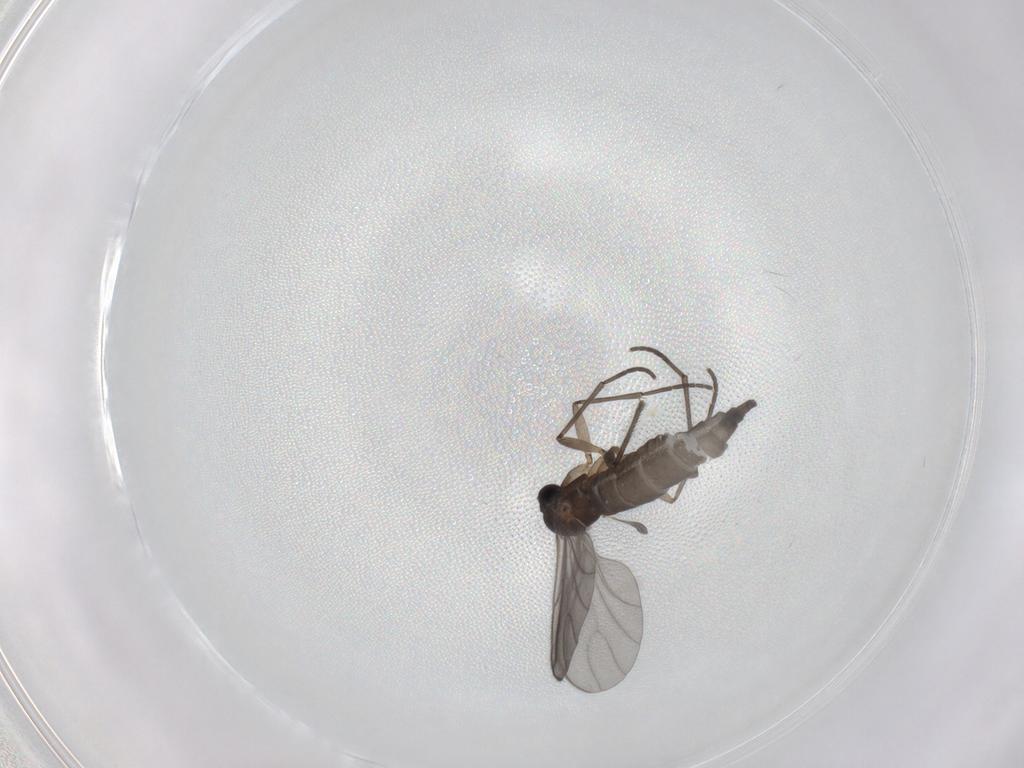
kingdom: Animalia
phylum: Arthropoda
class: Insecta
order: Diptera
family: Sciaridae
